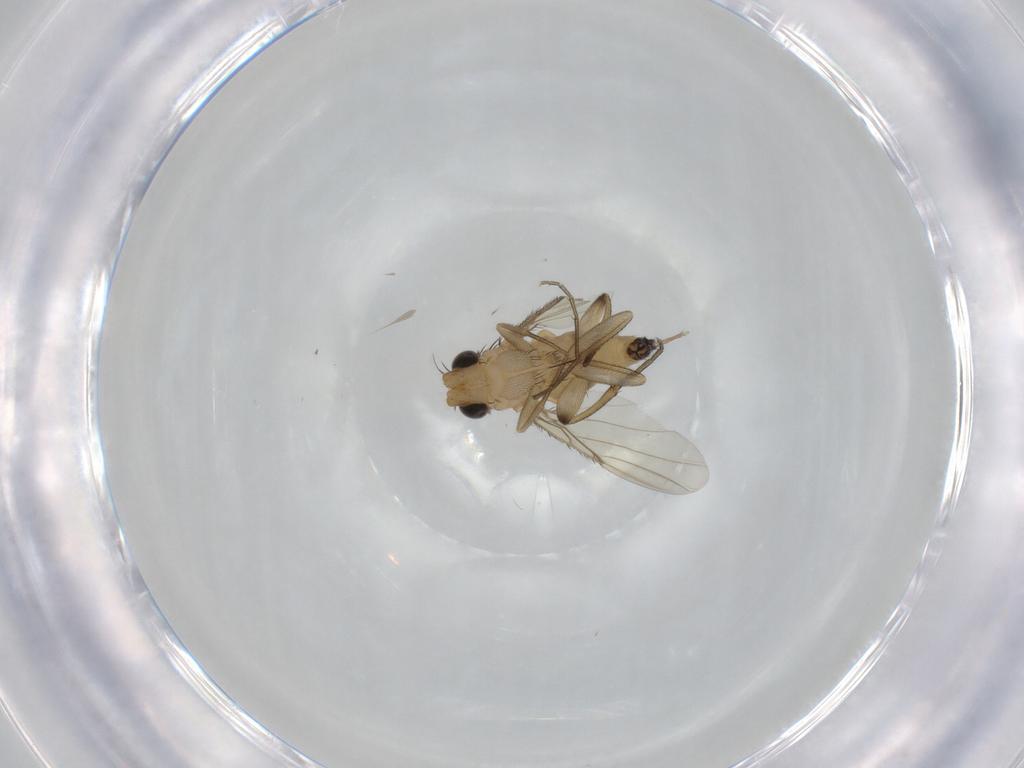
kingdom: Animalia
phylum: Arthropoda
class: Insecta
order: Diptera
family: Phoridae
